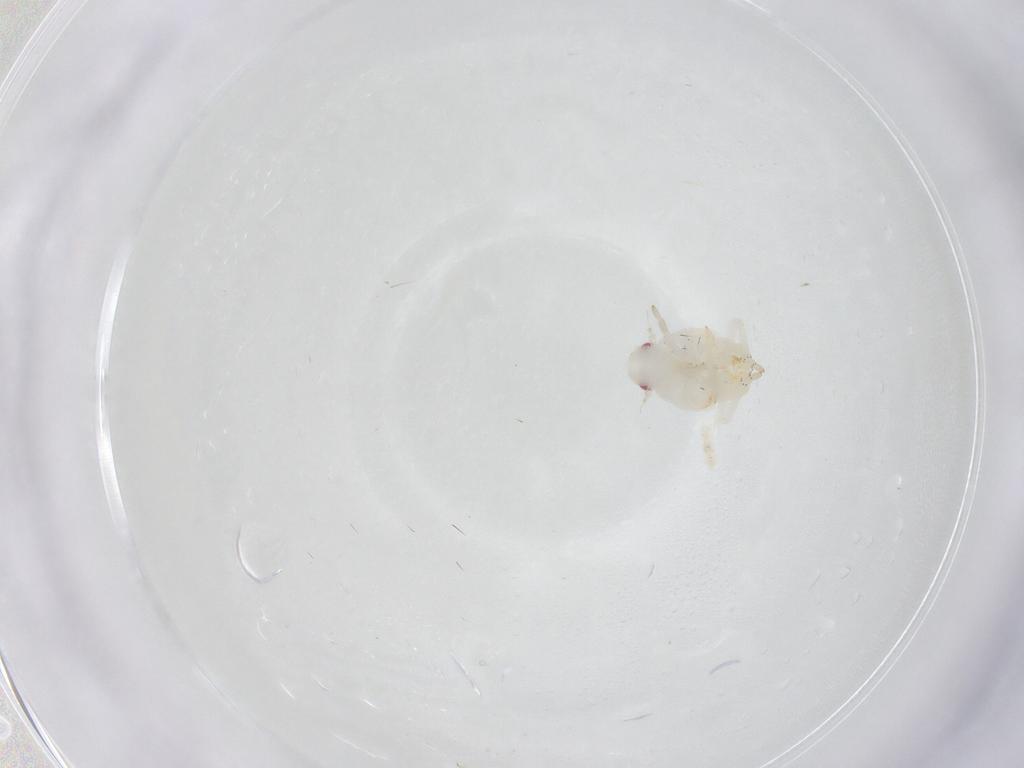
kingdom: Animalia
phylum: Arthropoda
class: Insecta
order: Hemiptera
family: Flatidae
